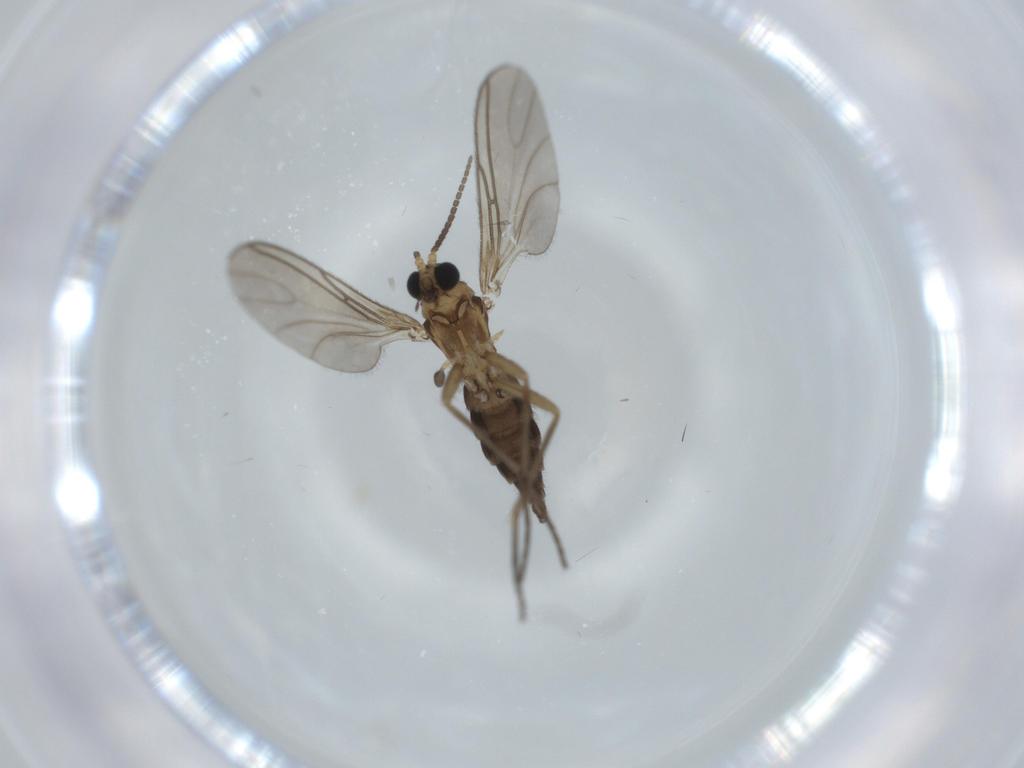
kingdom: Animalia
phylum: Arthropoda
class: Insecta
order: Diptera
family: Sciaridae
